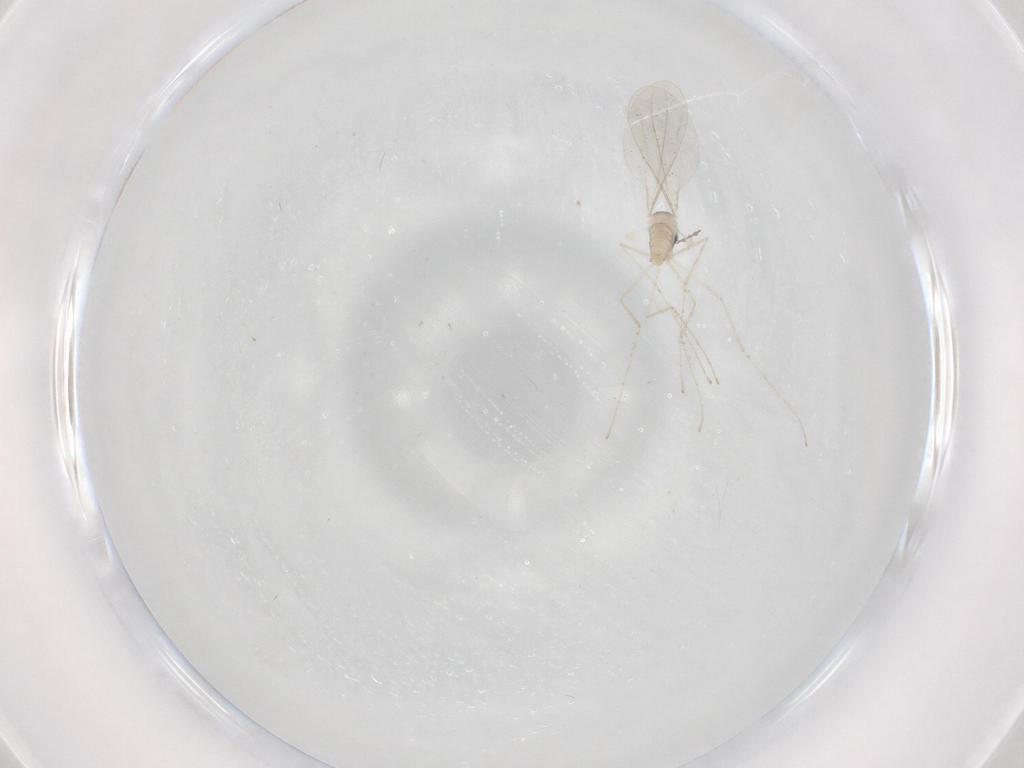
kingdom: Animalia
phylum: Arthropoda
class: Insecta
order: Diptera
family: Cecidomyiidae
